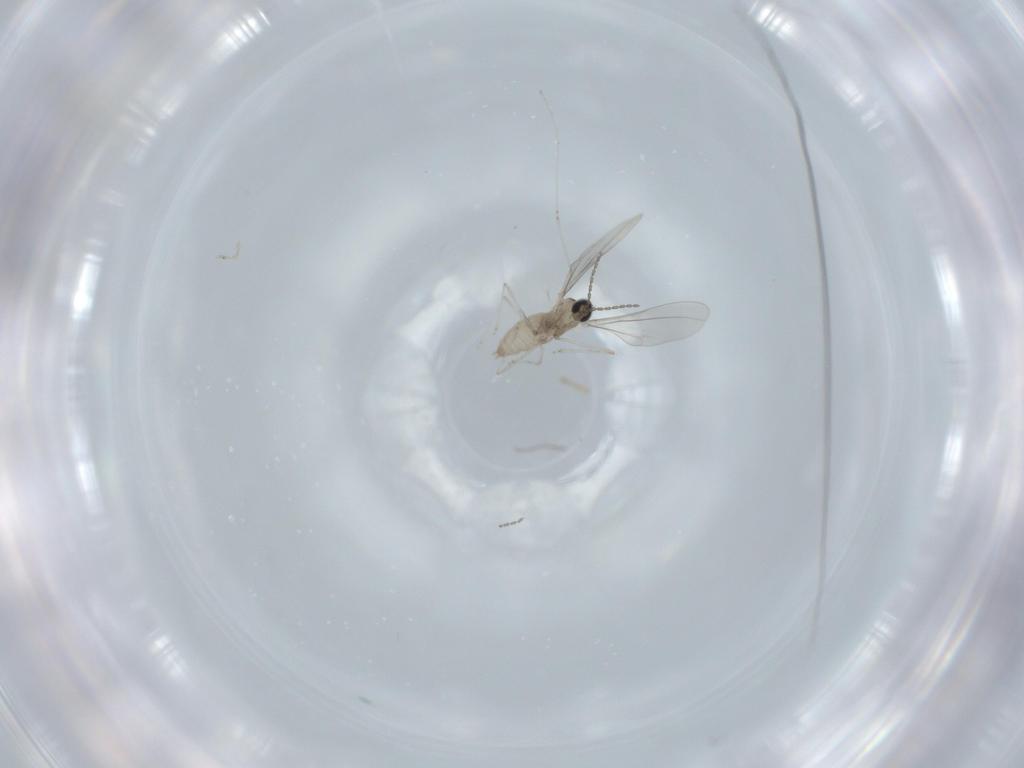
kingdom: Animalia
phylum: Arthropoda
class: Insecta
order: Diptera
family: Cecidomyiidae
